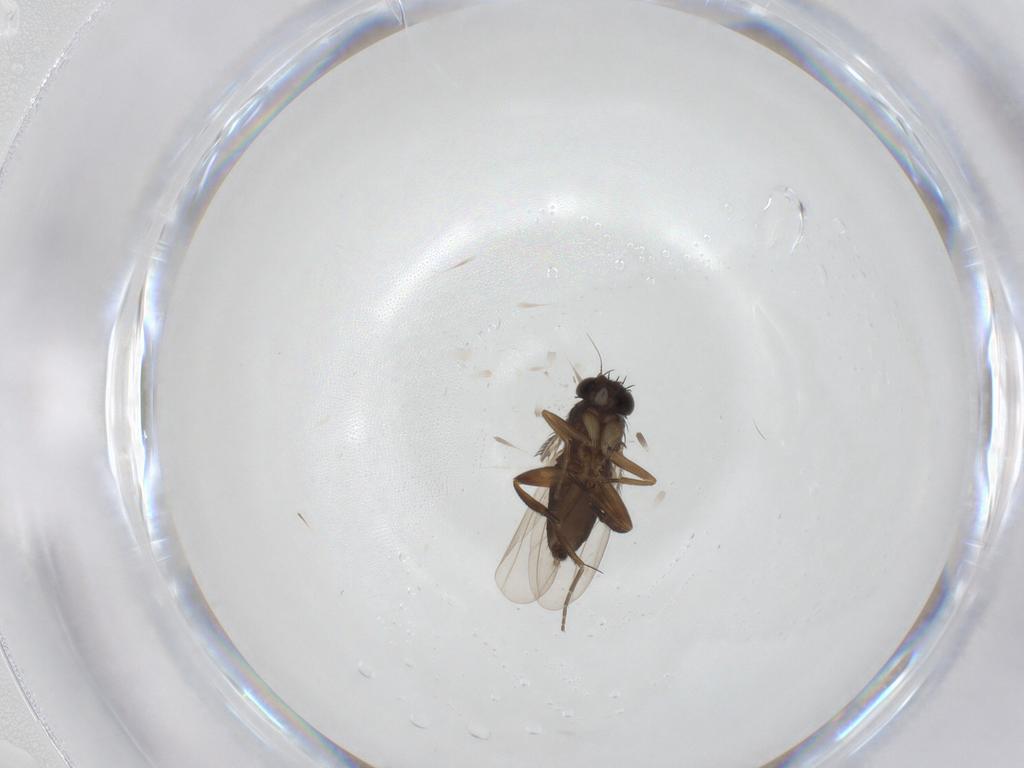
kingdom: Animalia
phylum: Arthropoda
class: Insecta
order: Diptera
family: Phoridae
